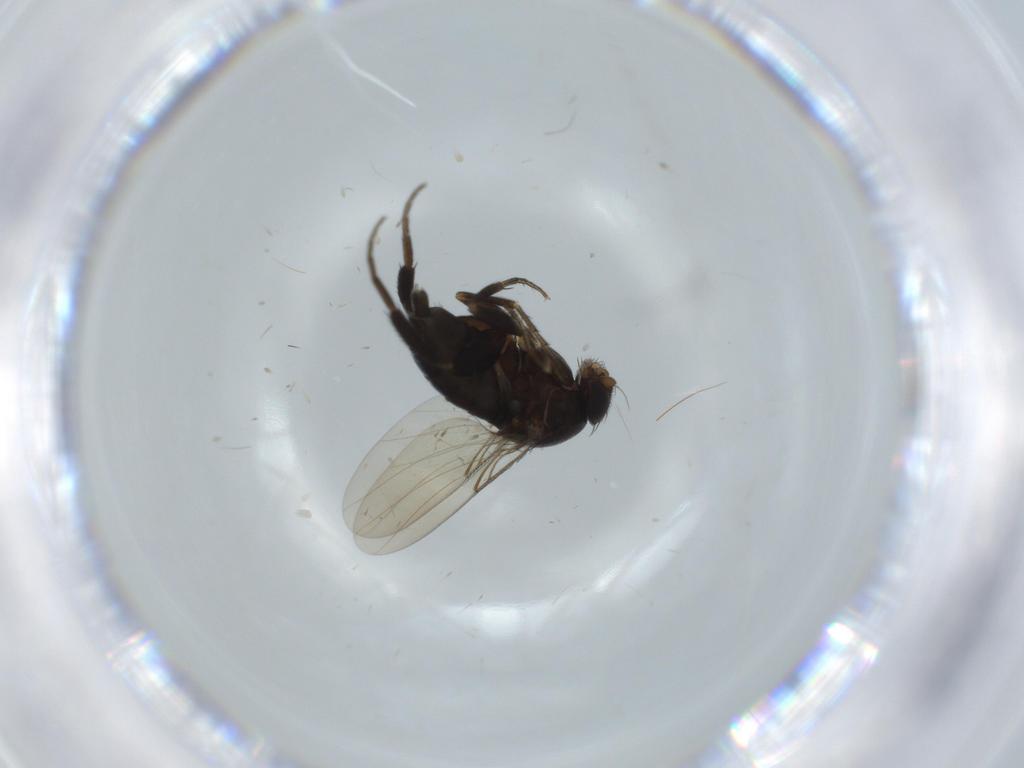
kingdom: Animalia
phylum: Arthropoda
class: Insecta
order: Diptera
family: Phoridae
